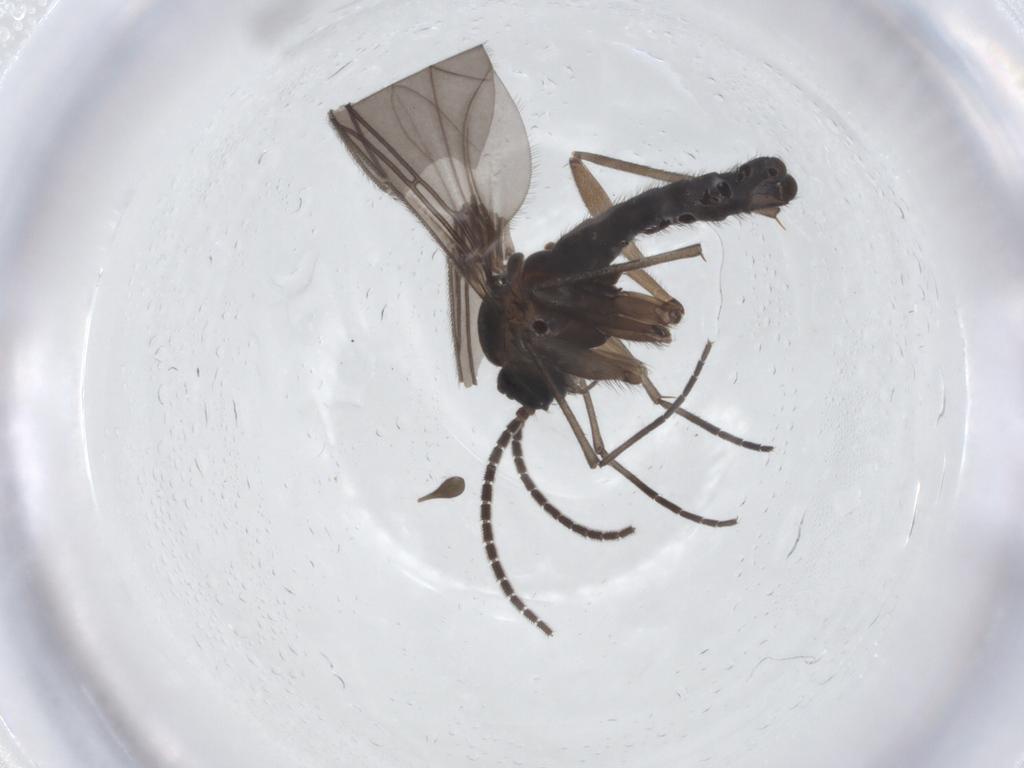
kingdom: Animalia
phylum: Arthropoda
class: Insecta
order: Diptera
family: Sciaridae
